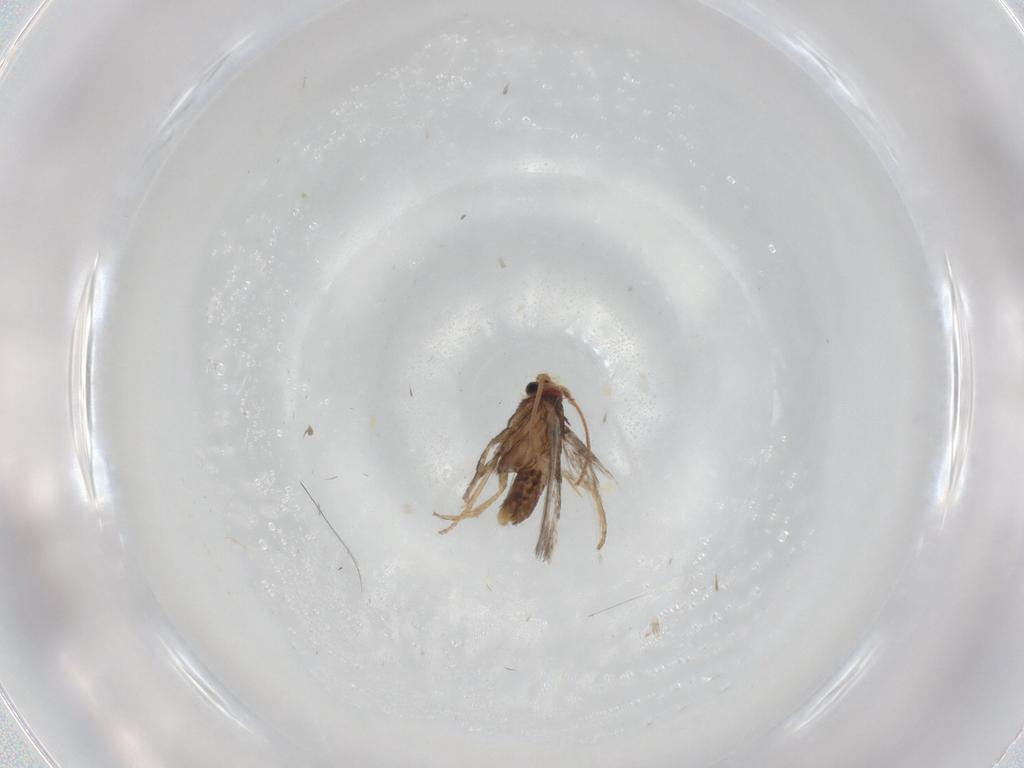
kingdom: Animalia
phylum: Arthropoda
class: Insecta
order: Lepidoptera
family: Nepticulidae
